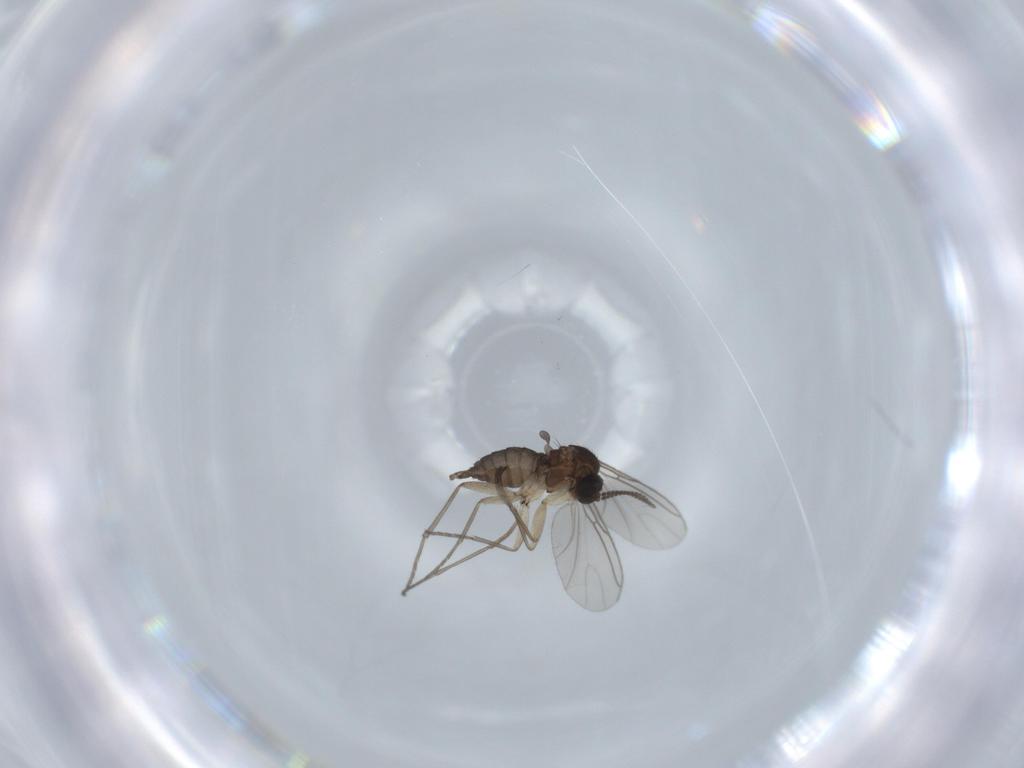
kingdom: Animalia
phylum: Arthropoda
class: Insecta
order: Diptera
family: Sciaridae
